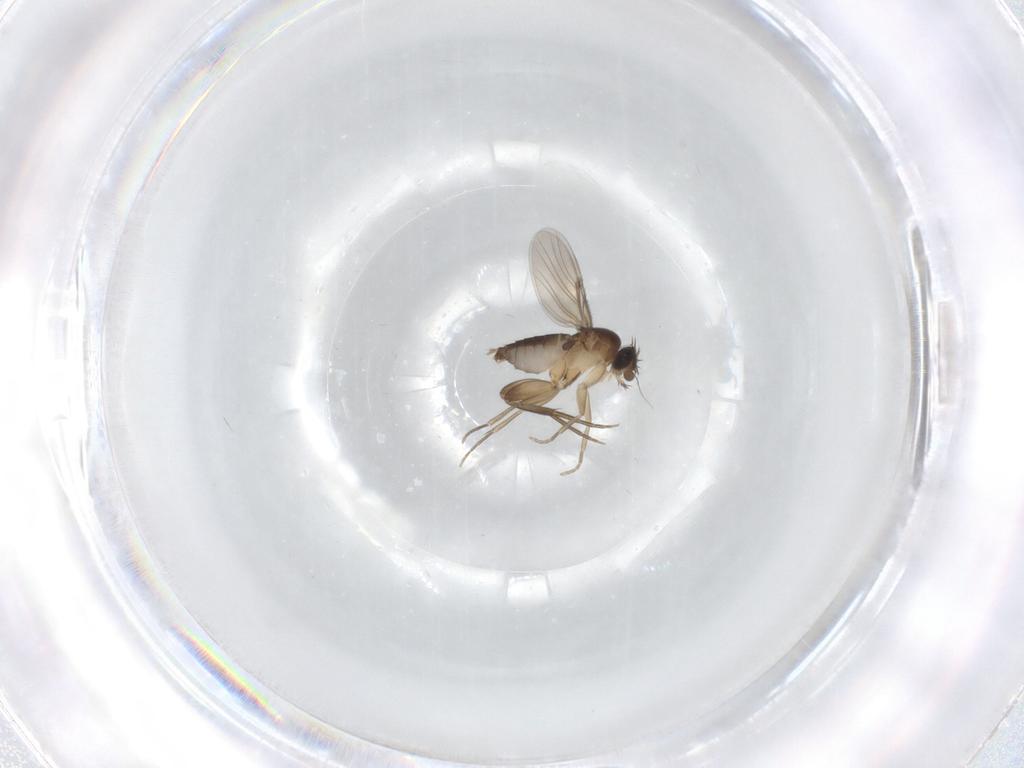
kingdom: Animalia
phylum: Arthropoda
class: Insecta
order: Diptera
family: Phoridae
